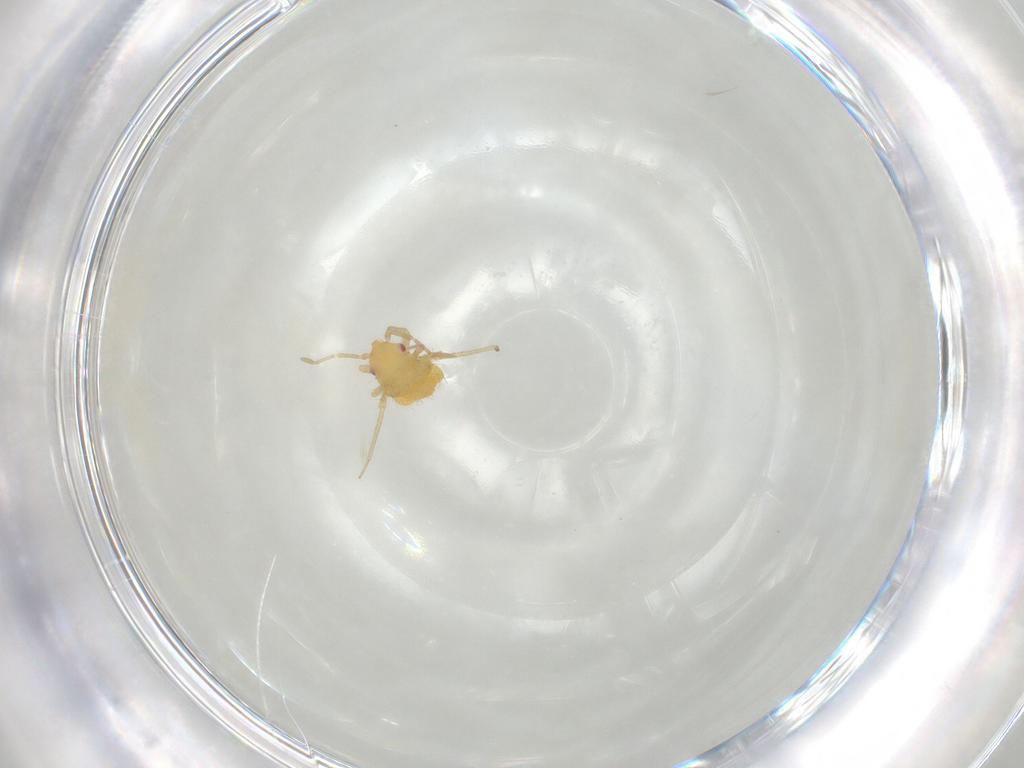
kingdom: Animalia
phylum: Arthropoda
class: Insecta
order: Hemiptera
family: Cicadellidae
